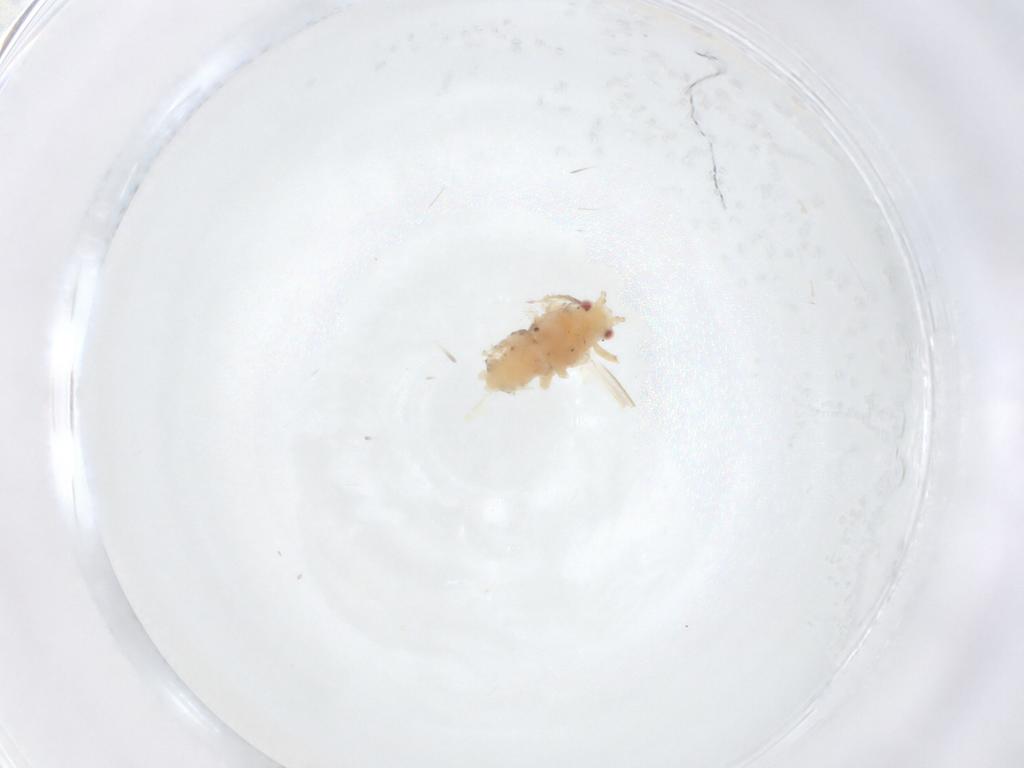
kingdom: Animalia
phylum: Arthropoda
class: Insecta
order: Hemiptera
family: Aphididae
